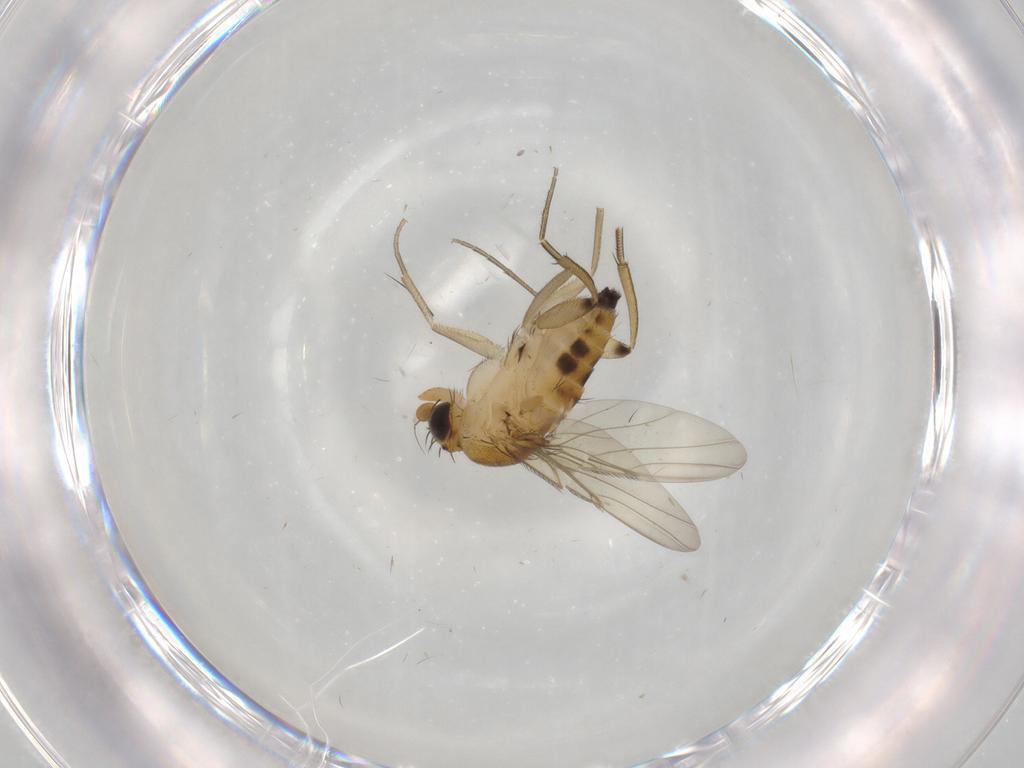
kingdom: Animalia
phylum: Arthropoda
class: Insecta
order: Diptera
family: Phoridae
